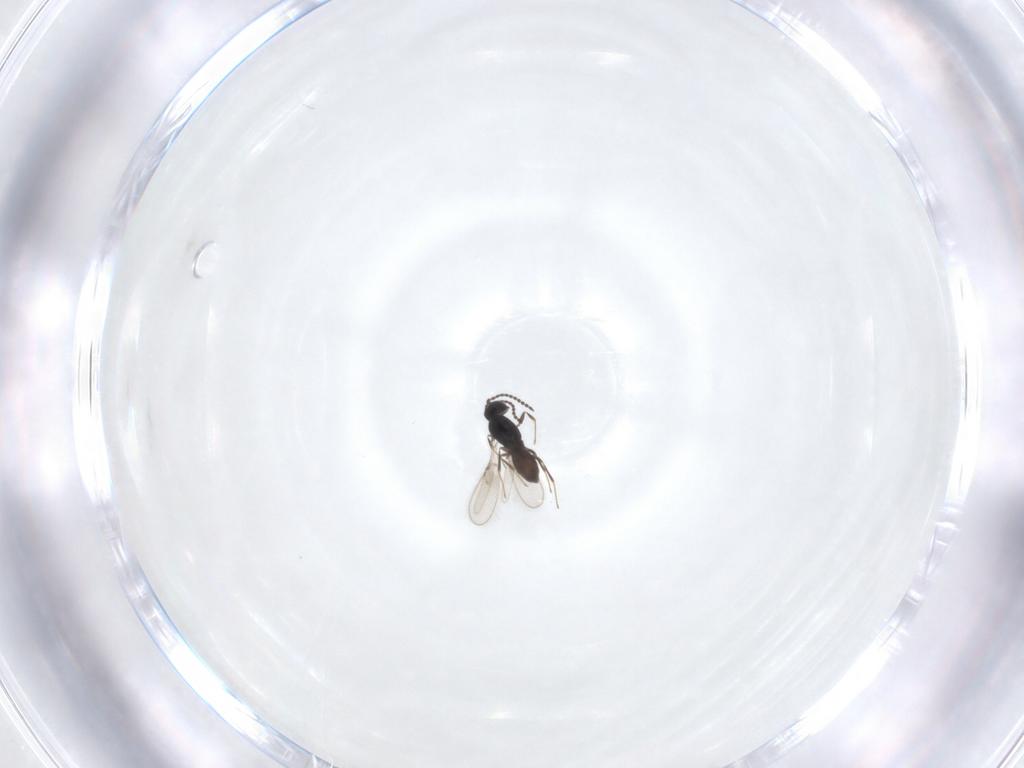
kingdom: Animalia
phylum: Arthropoda
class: Insecta
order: Hymenoptera
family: Scelionidae
